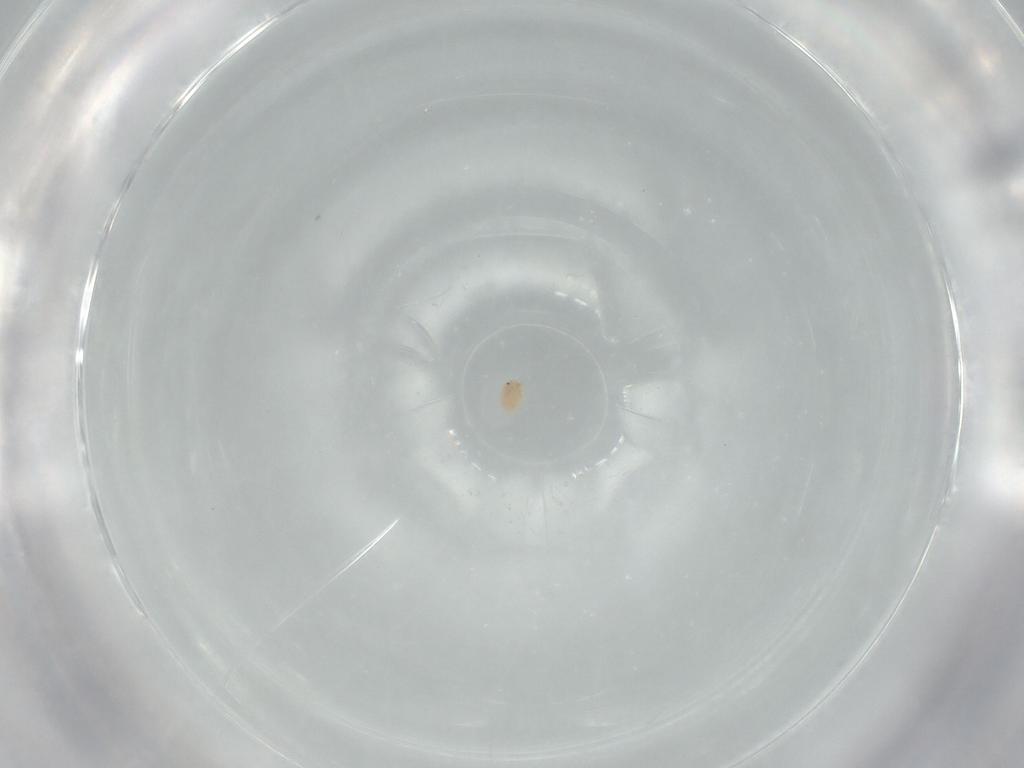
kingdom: Animalia
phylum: Arthropoda
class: Arachnida
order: Trombidiformes
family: Pionidae
